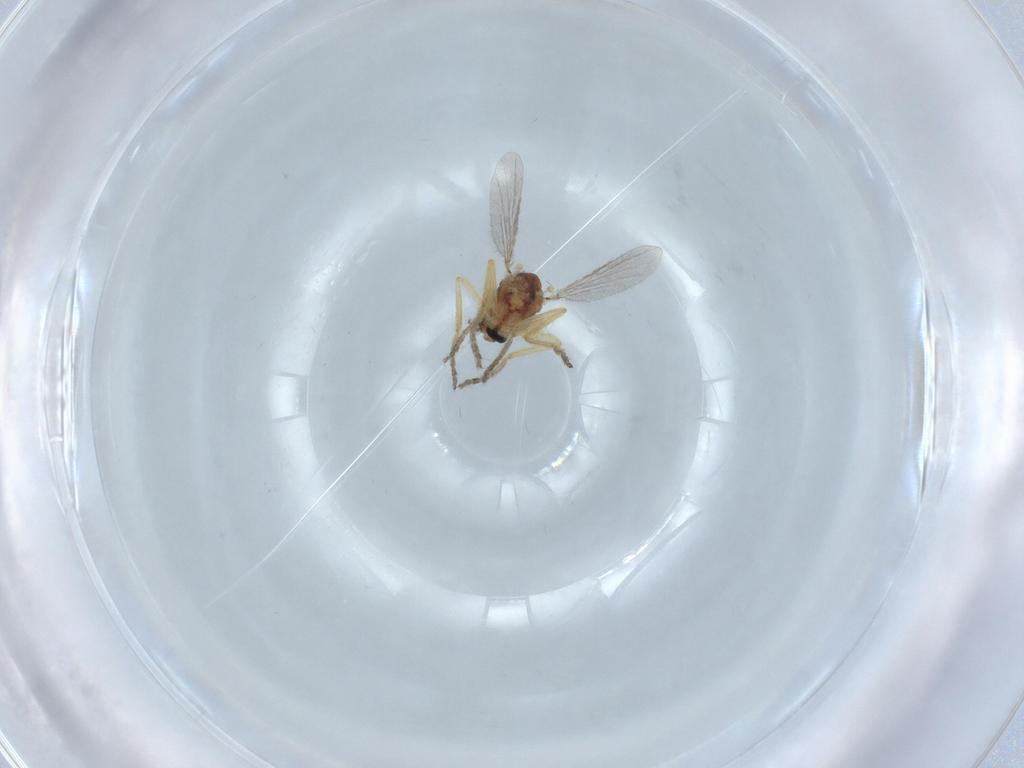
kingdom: Animalia
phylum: Arthropoda
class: Insecta
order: Diptera
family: Ceratopogonidae
